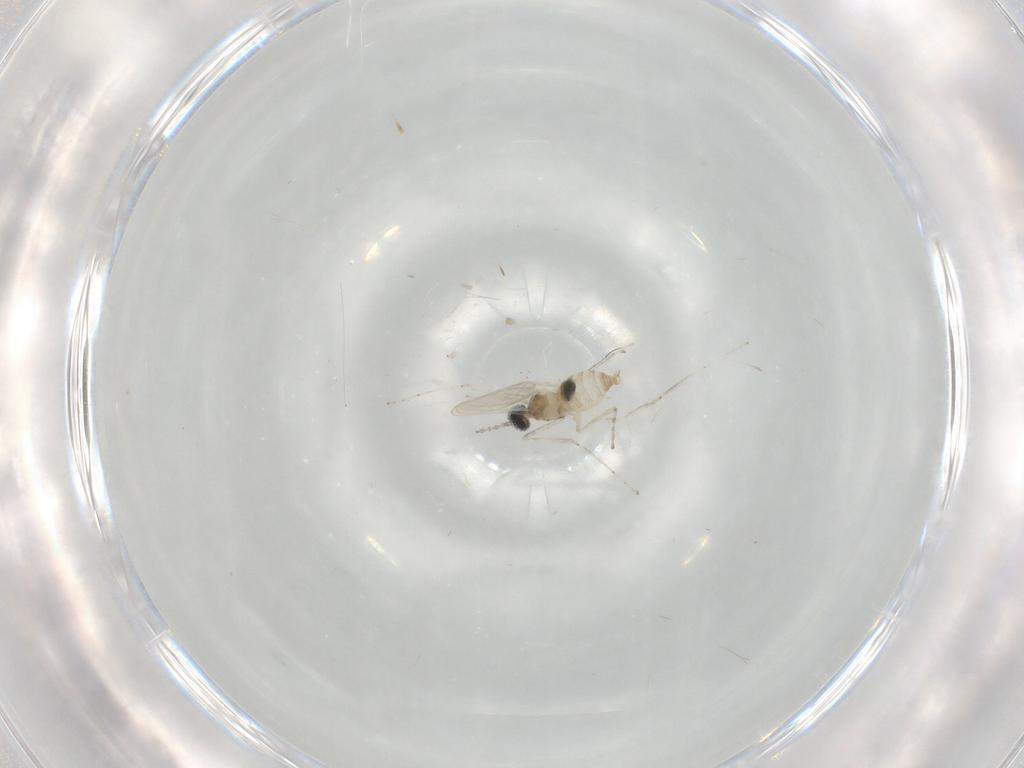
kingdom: Animalia
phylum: Arthropoda
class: Insecta
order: Diptera
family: Cecidomyiidae
